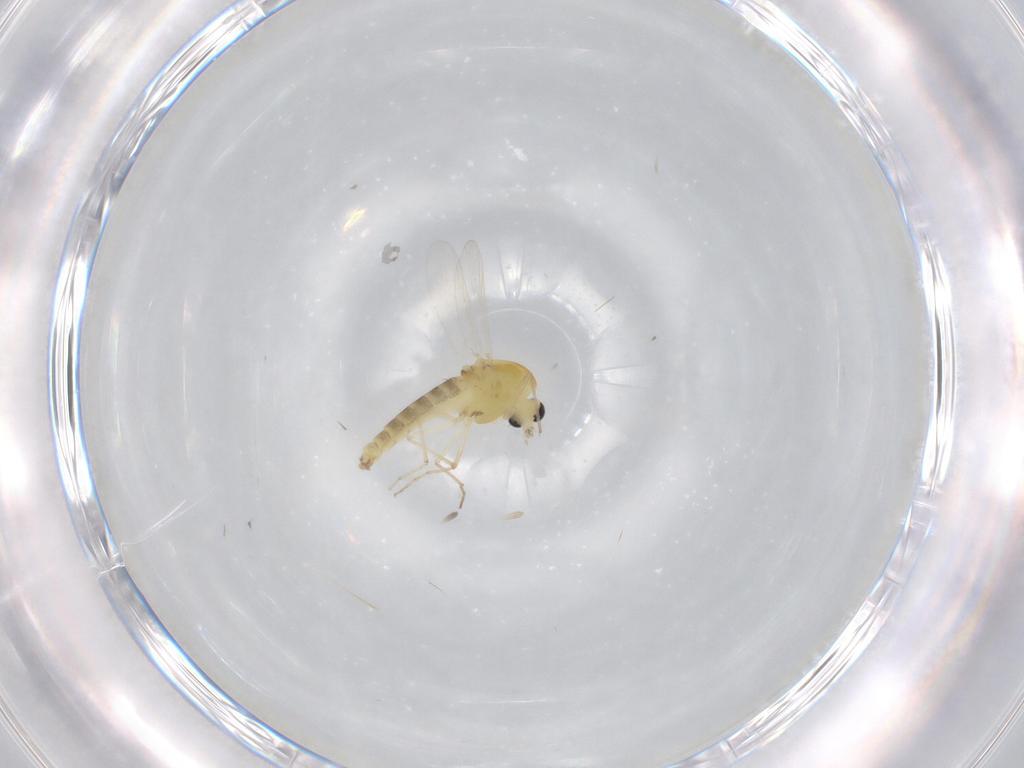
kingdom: Animalia
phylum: Arthropoda
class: Insecta
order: Diptera
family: Chironomidae
